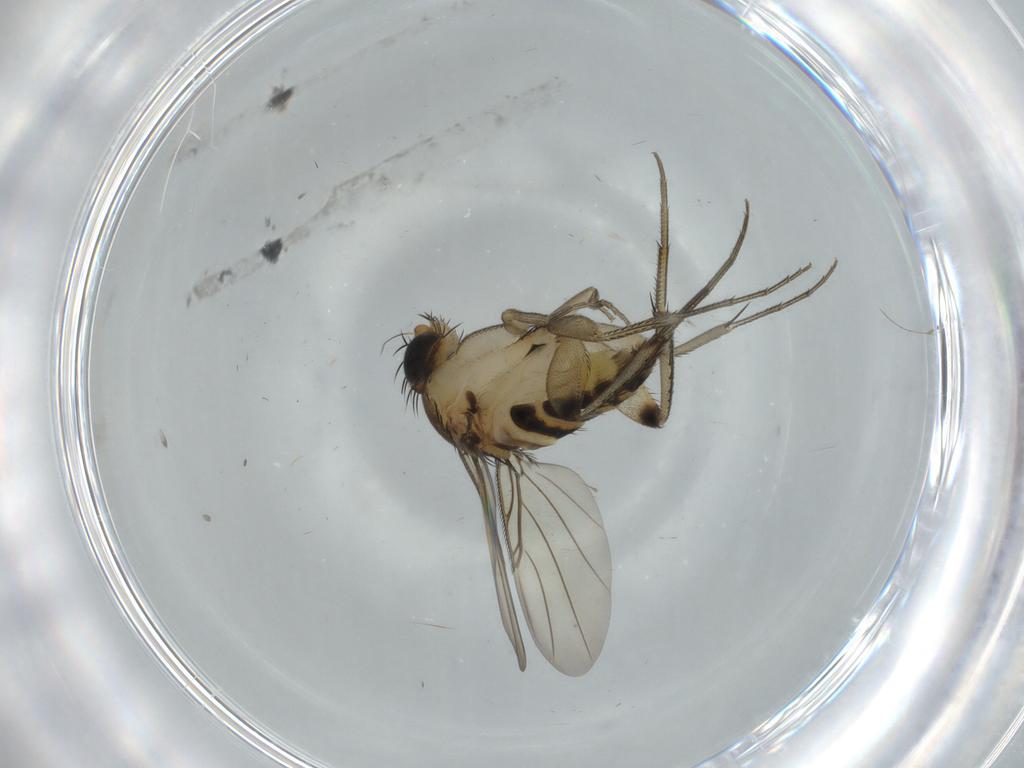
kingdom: Animalia
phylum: Arthropoda
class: Insecta
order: Diptera
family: Phoridae
